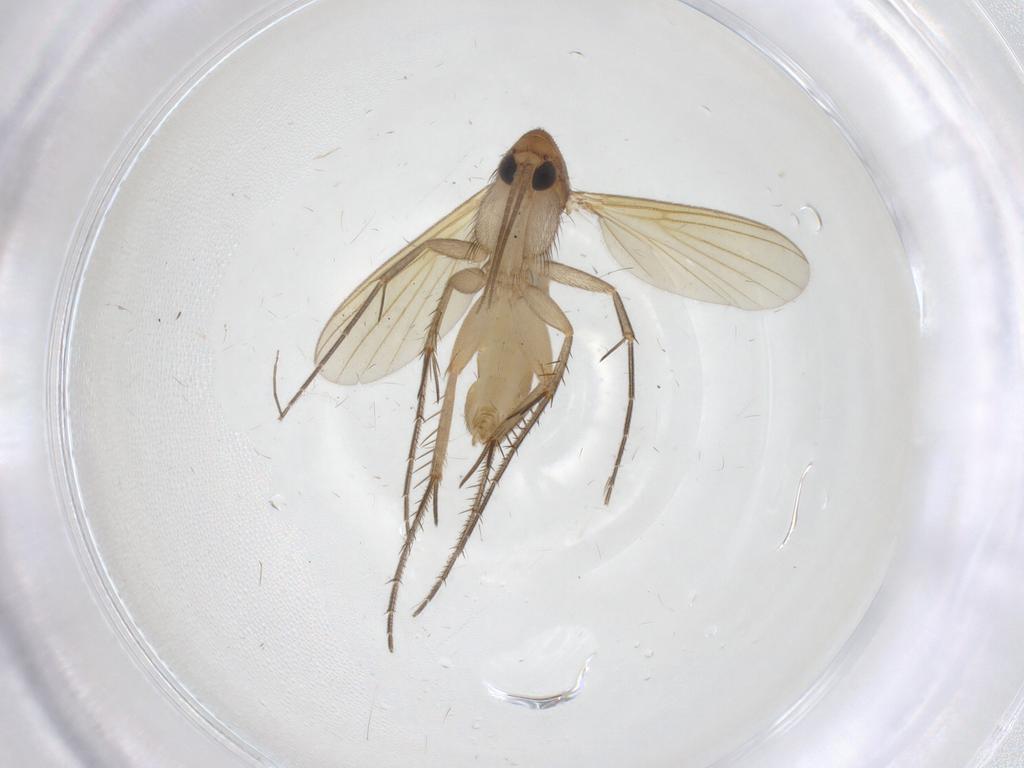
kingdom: Animalia
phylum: Arthropoda
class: Insecta
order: Diptera
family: Mycetophilidae
